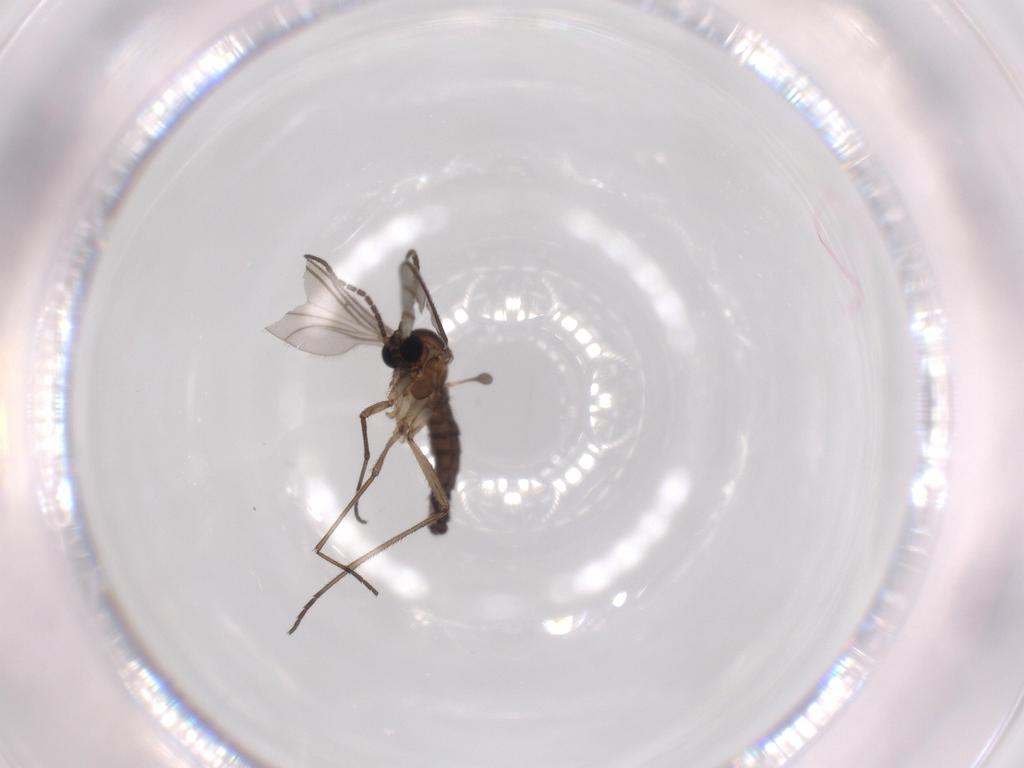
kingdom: Animalia
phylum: Arthropoda
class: Insecta
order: Diptera
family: Sciaridae
